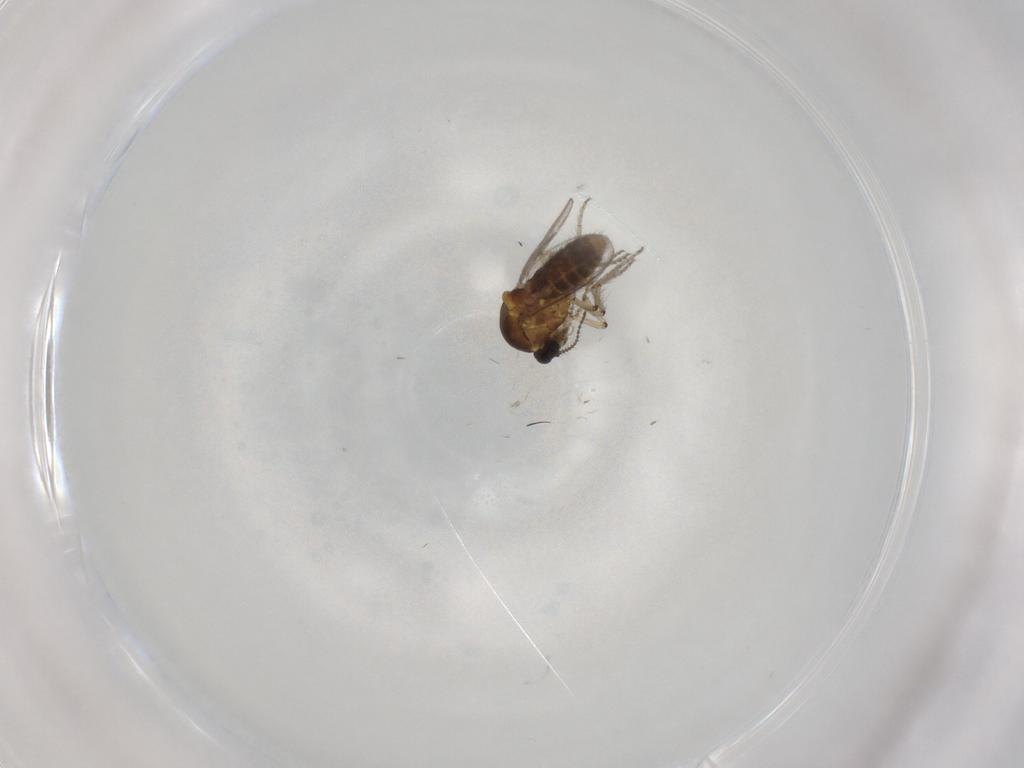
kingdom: Animalia
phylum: Arthropoda
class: Insecta
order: Diptera
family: Ceratopogonidae
